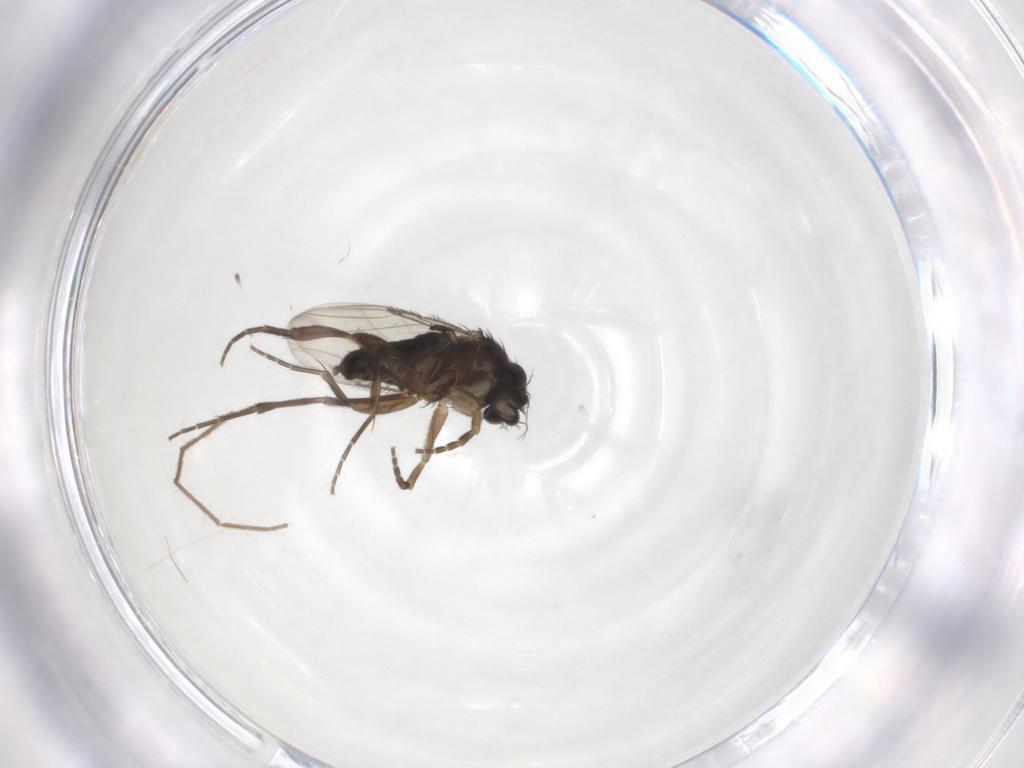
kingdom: Animalia
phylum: Arthropoda
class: Insecta
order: Diptera
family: Phoridae
